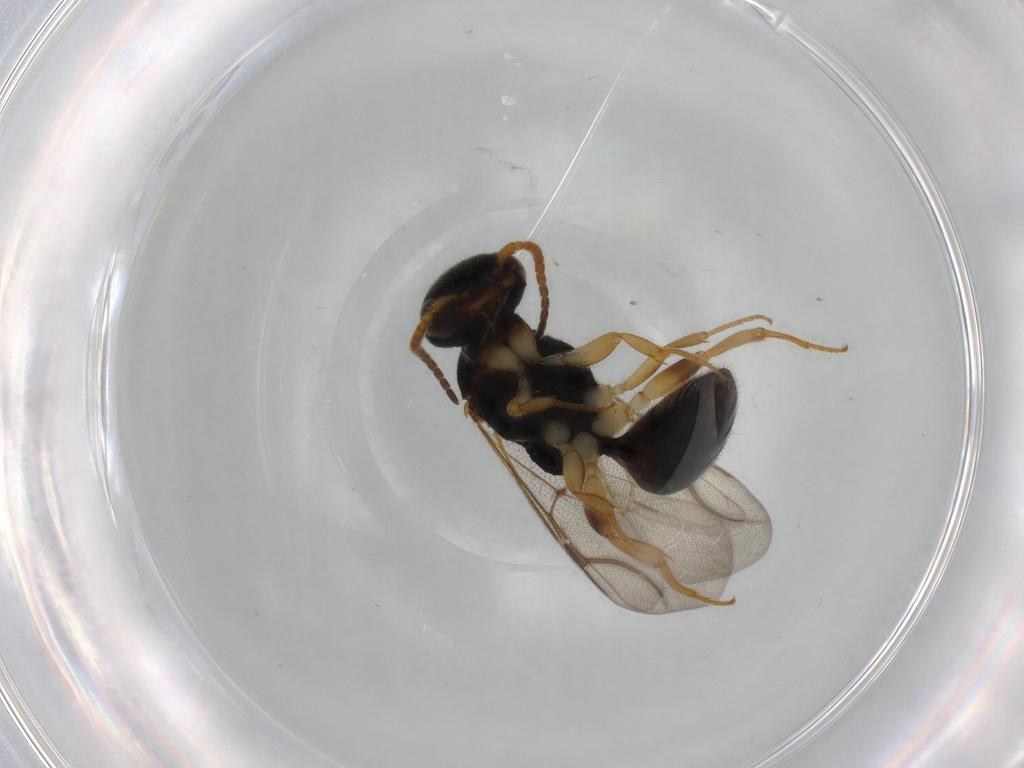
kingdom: Animalia
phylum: Arthropoda
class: Insecta
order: Hymenoptera
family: Bethylidae
